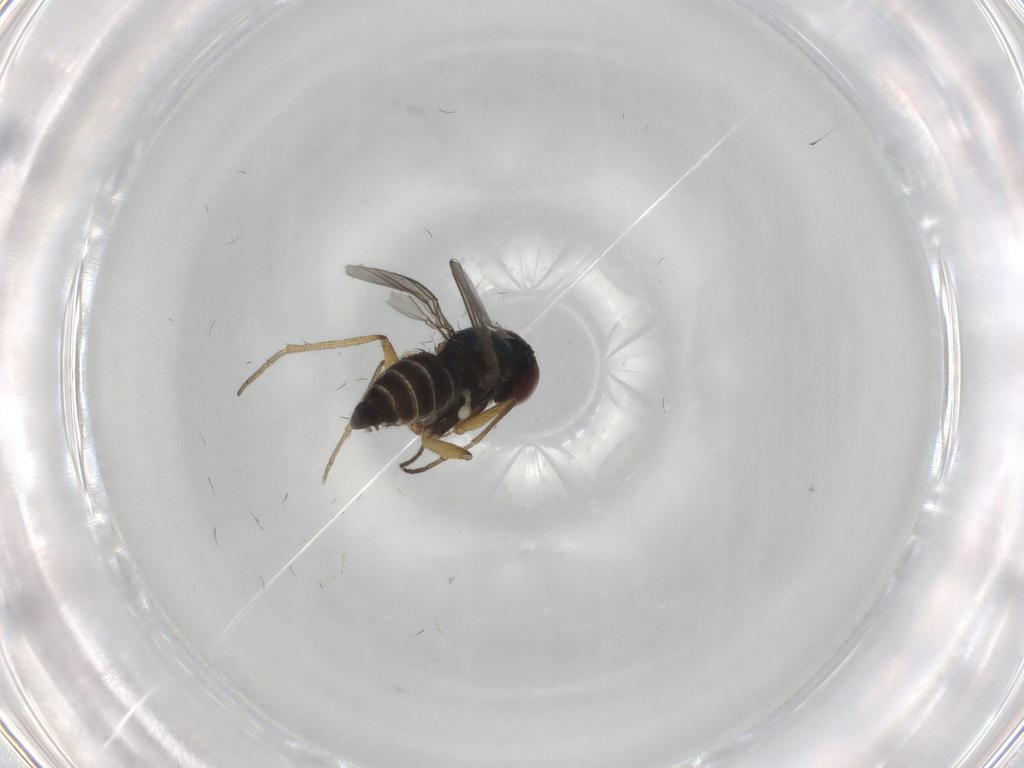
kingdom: Animalia
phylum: Arthropoda
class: Insecta
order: Diptera
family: Dolichopodidae
